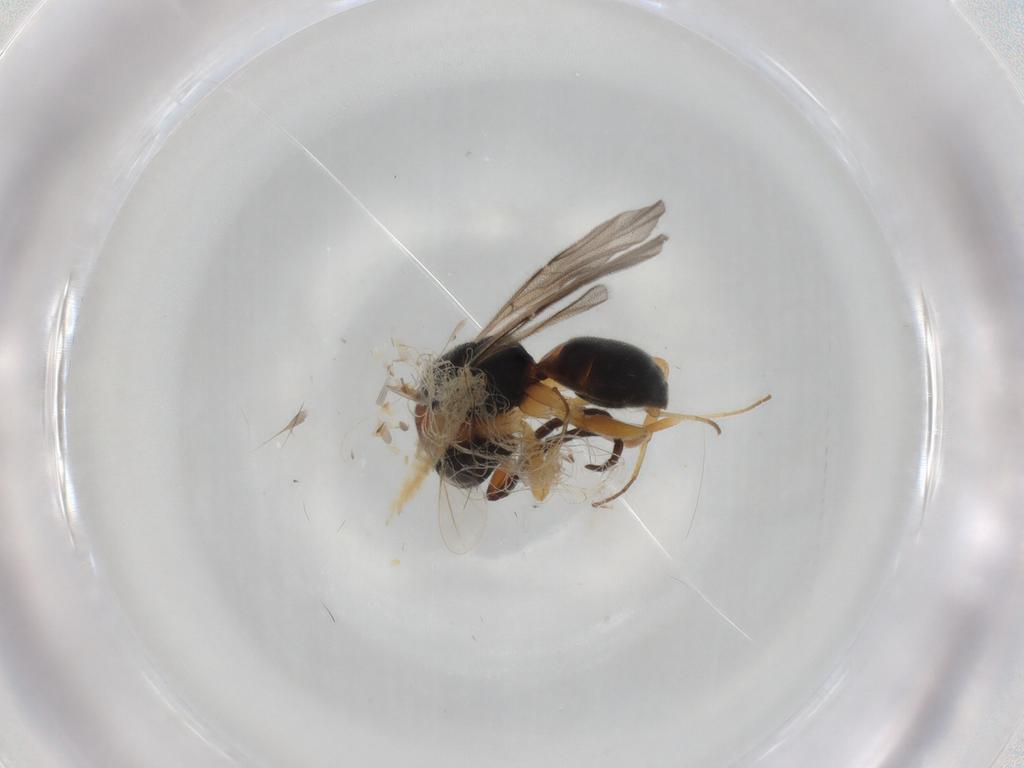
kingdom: Animalia
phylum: Arthropoda
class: Insecta
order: Hymenoptera
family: Chrysididae
